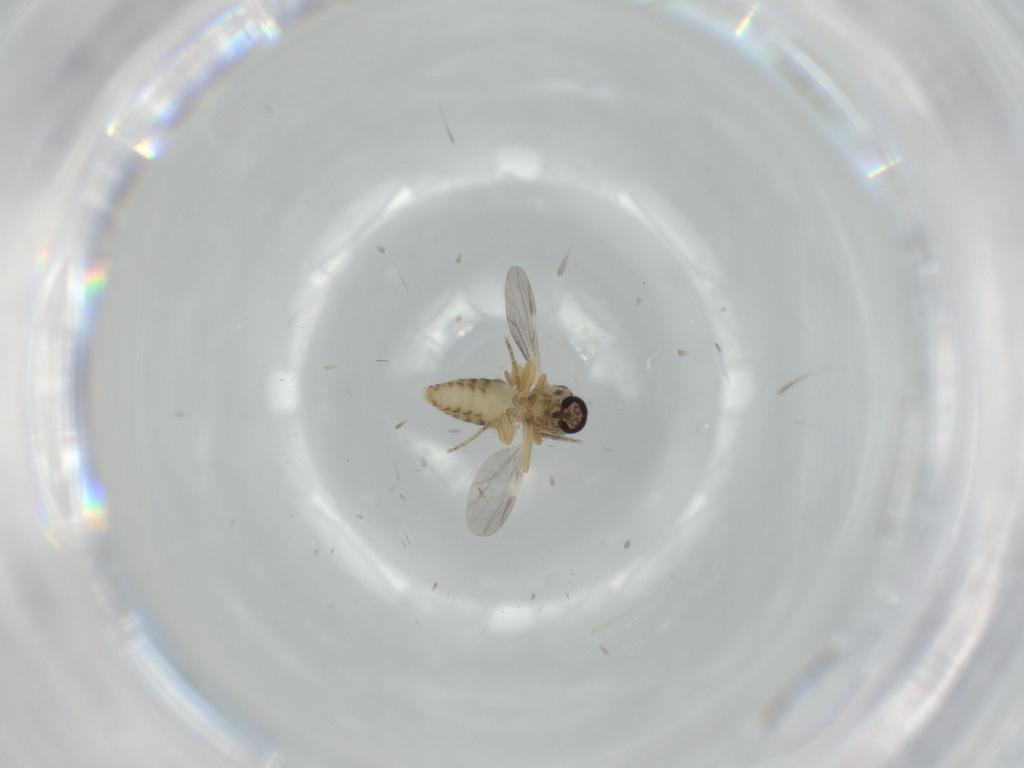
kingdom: Animalia
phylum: Arthropoda
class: Insecta
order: Diptera
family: Ceratopogonidae
